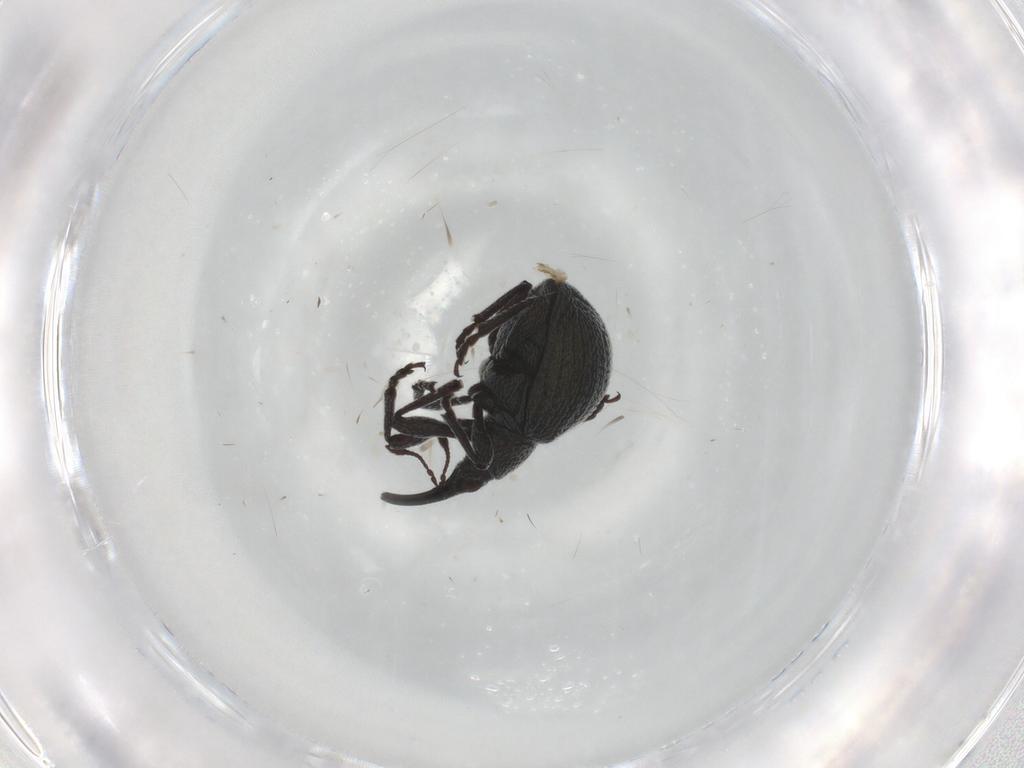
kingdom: Animalia
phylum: Arthropoda
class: Insecta
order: Coleoptera
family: Brentidae
